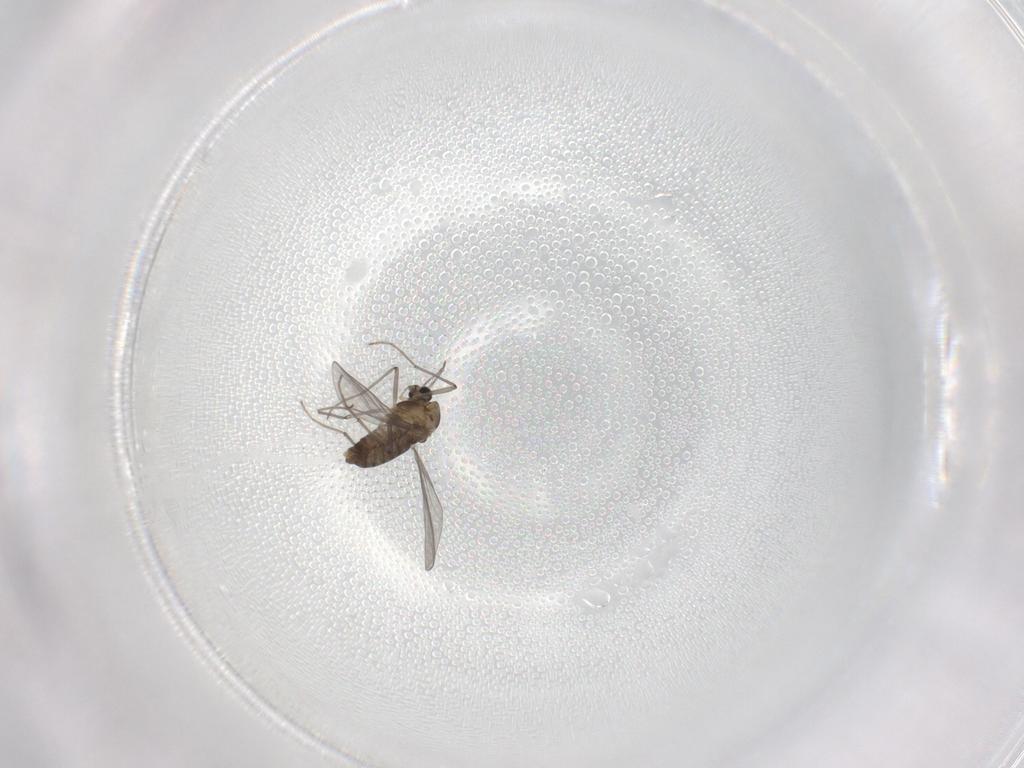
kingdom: Animalia
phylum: Arthropoda
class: Insecta
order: Diptera
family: Chironomidae
